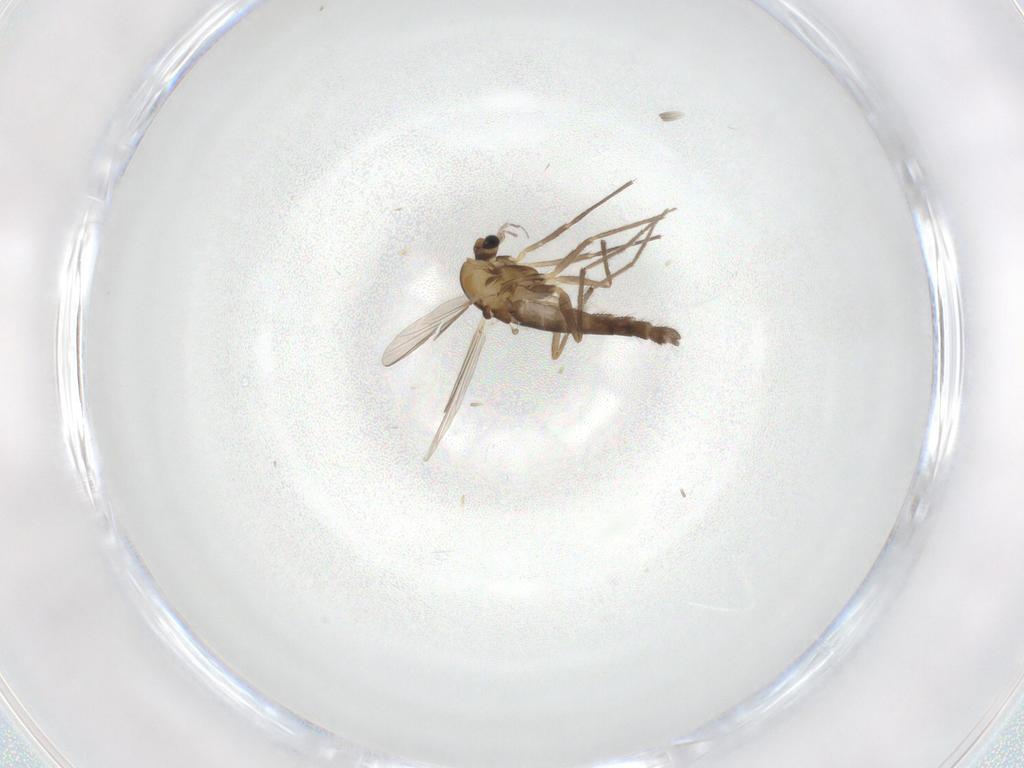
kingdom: Animalia
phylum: Arthropoda
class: Insecta
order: Diptera
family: Chironomidae
